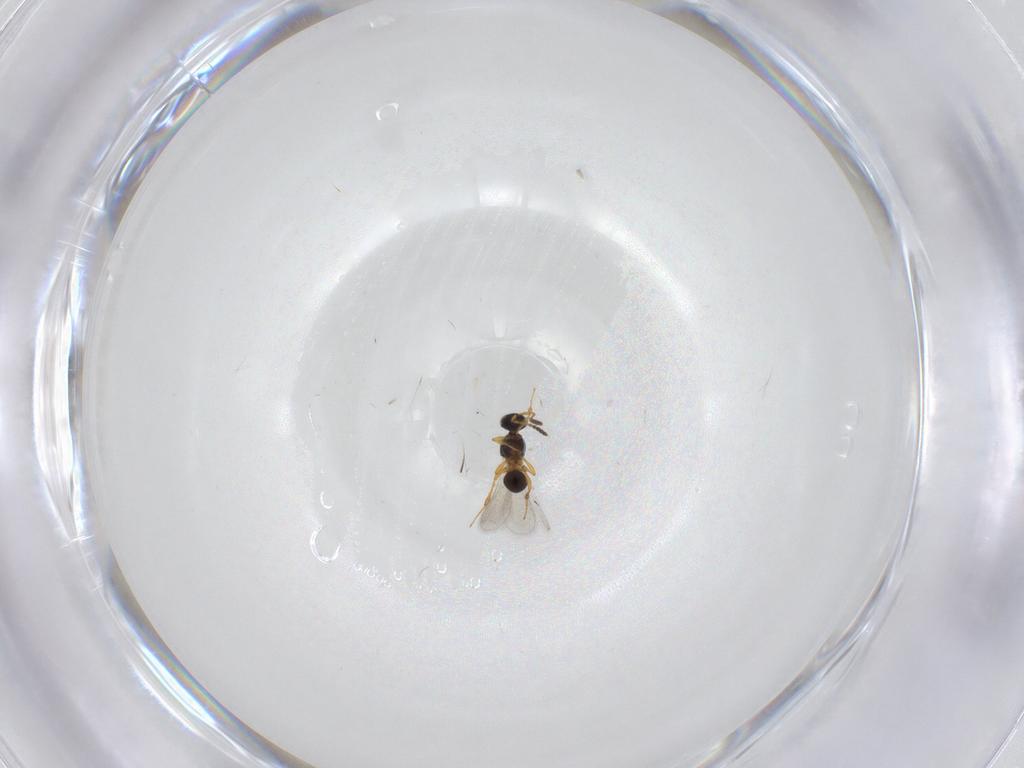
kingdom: Animalia
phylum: Arthropoda
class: Insecta
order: Hymenoptera
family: Platygastridae
